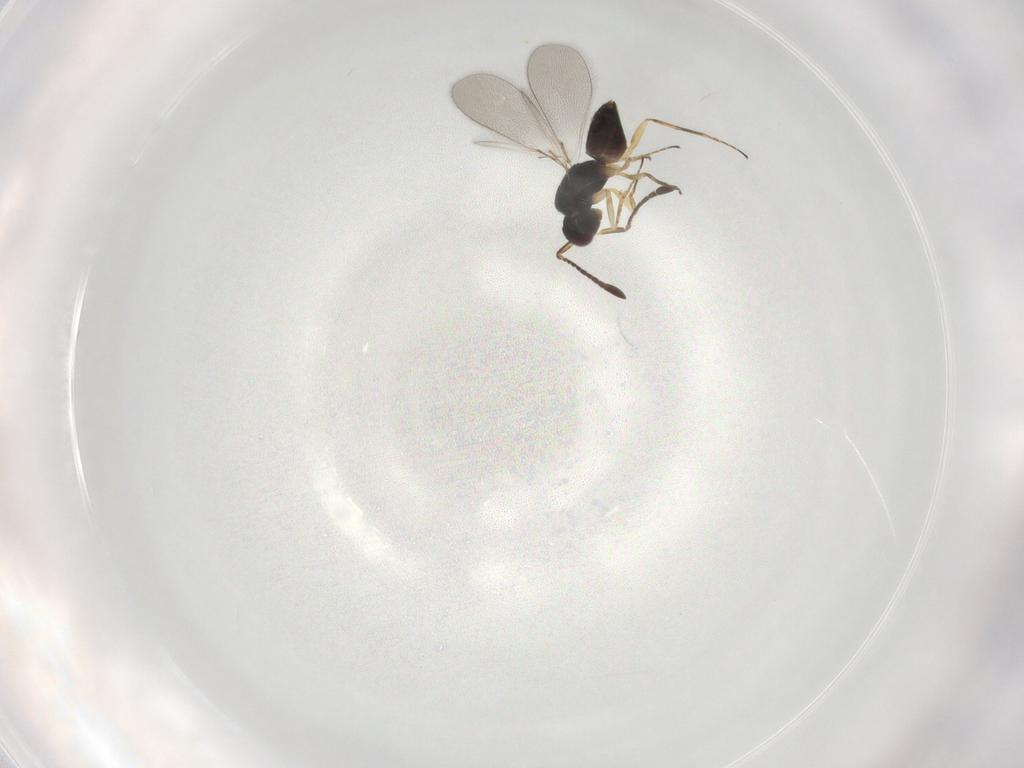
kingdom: Animalia
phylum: Arthropoda
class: Insecta
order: Hymenoptera
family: Mymaridae
